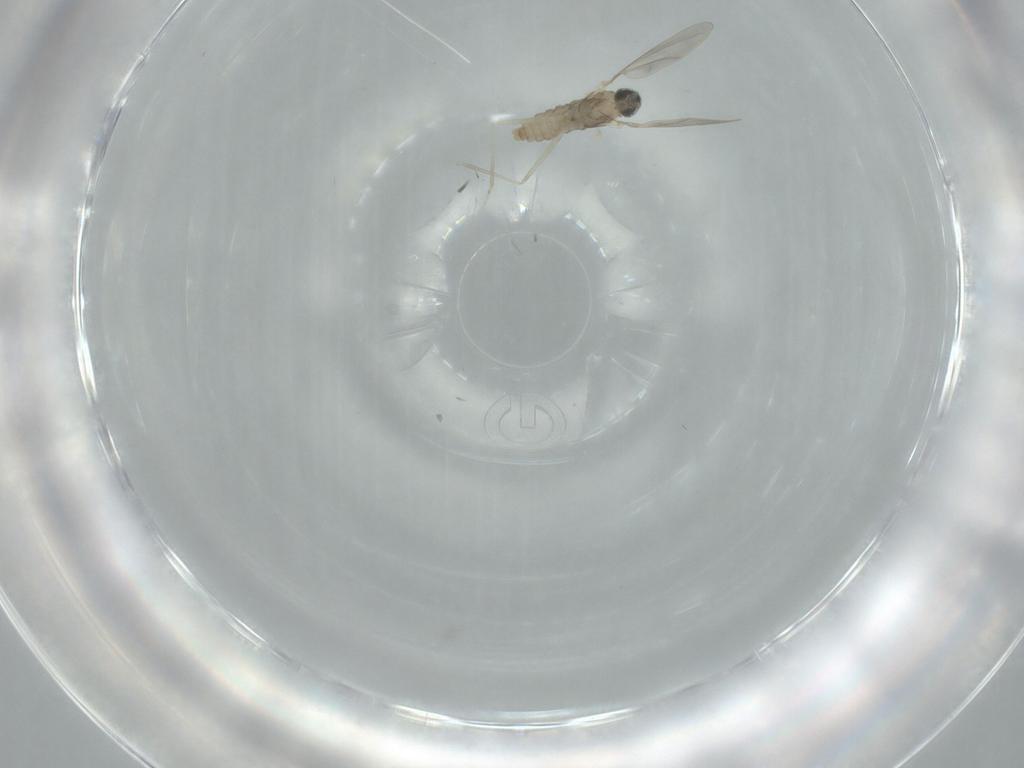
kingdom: Animalia
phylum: Arthropoda
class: Insecta
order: Diptera
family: Cecidomyiidae
